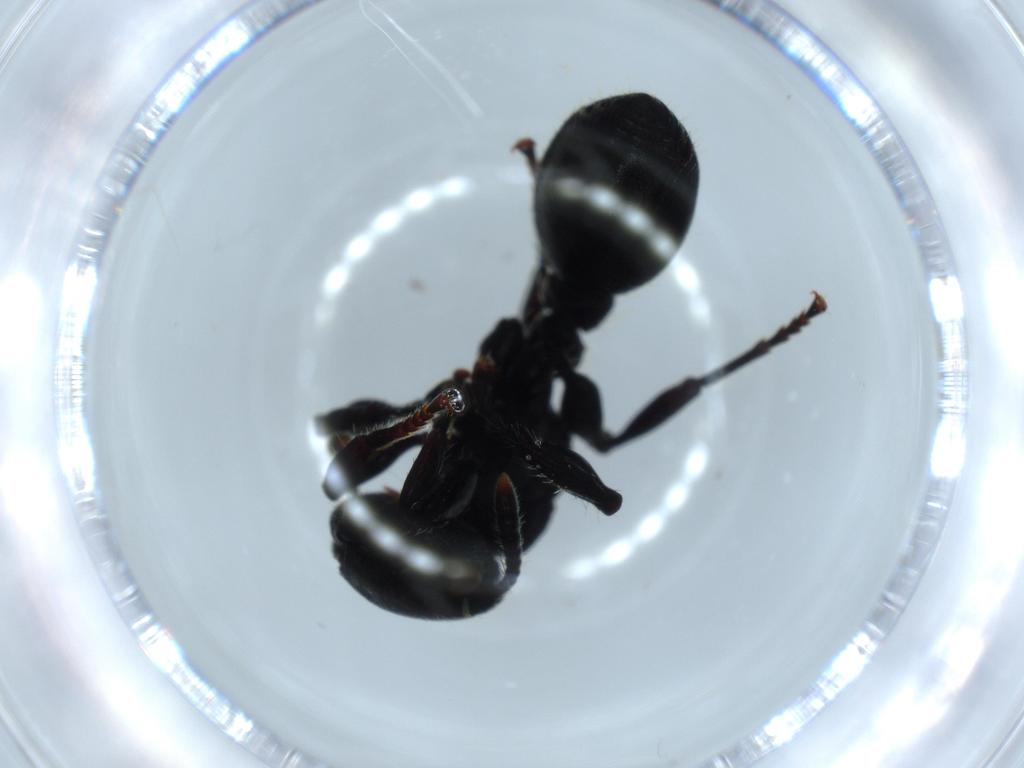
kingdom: Animalia
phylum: Arthropoda
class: Insecta
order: Hymenoptera
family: Formicidae
